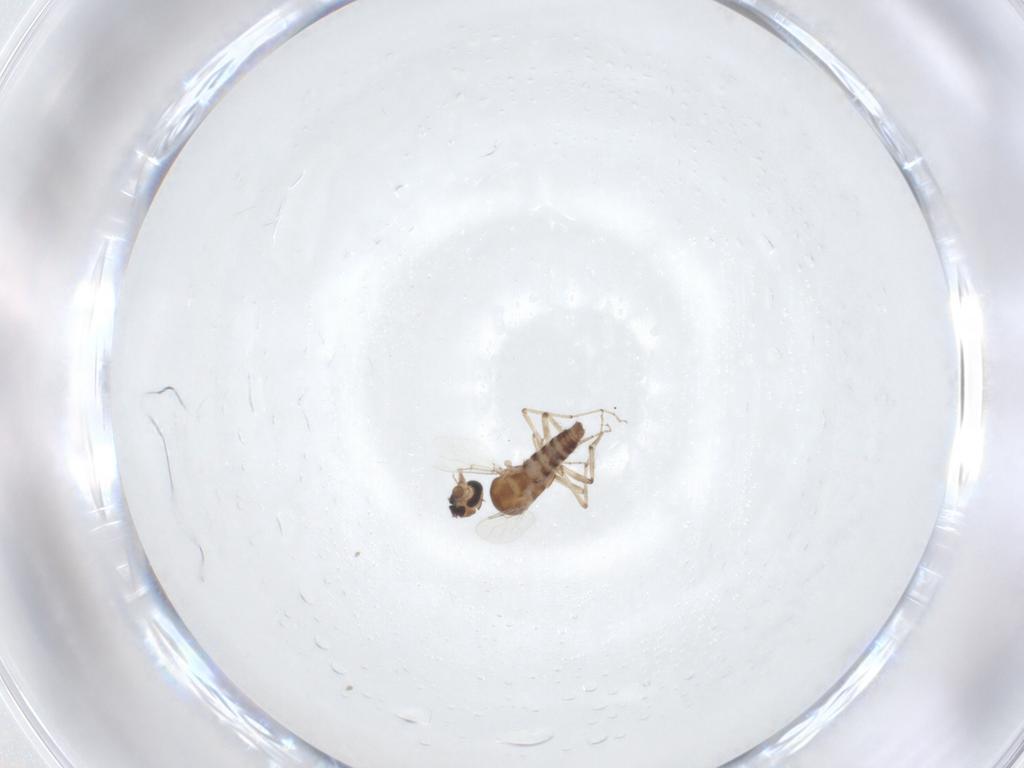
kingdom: Animalia
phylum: Arthropoda
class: Insecta
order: Diptera
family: Ceratopogonidae
